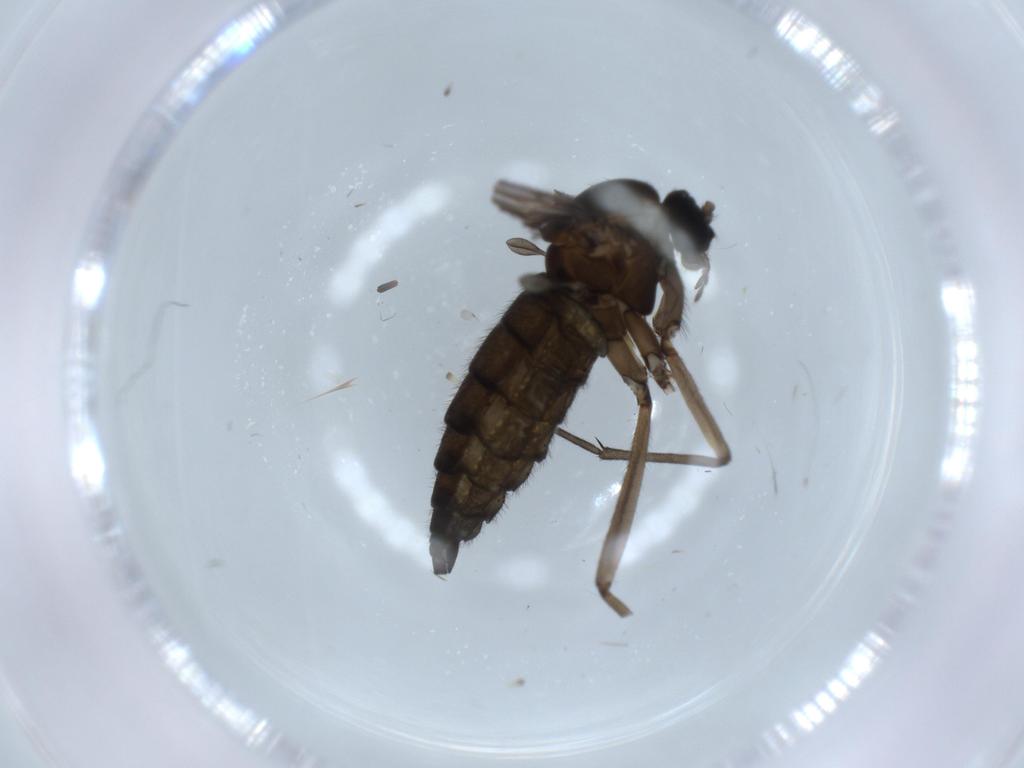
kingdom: Animalia
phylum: Arthropoda
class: Insecta
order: Diptera
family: Sciaridae
